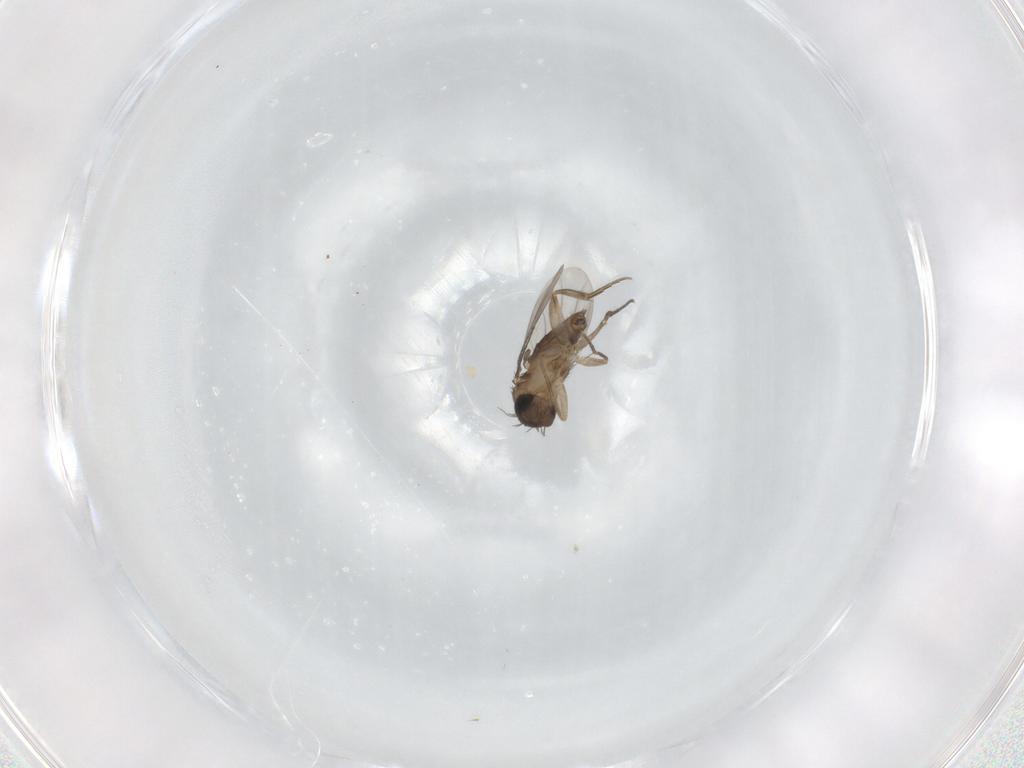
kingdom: Animalia
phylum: Arthropoda
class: Insecta
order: Diptera
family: Phoridae
